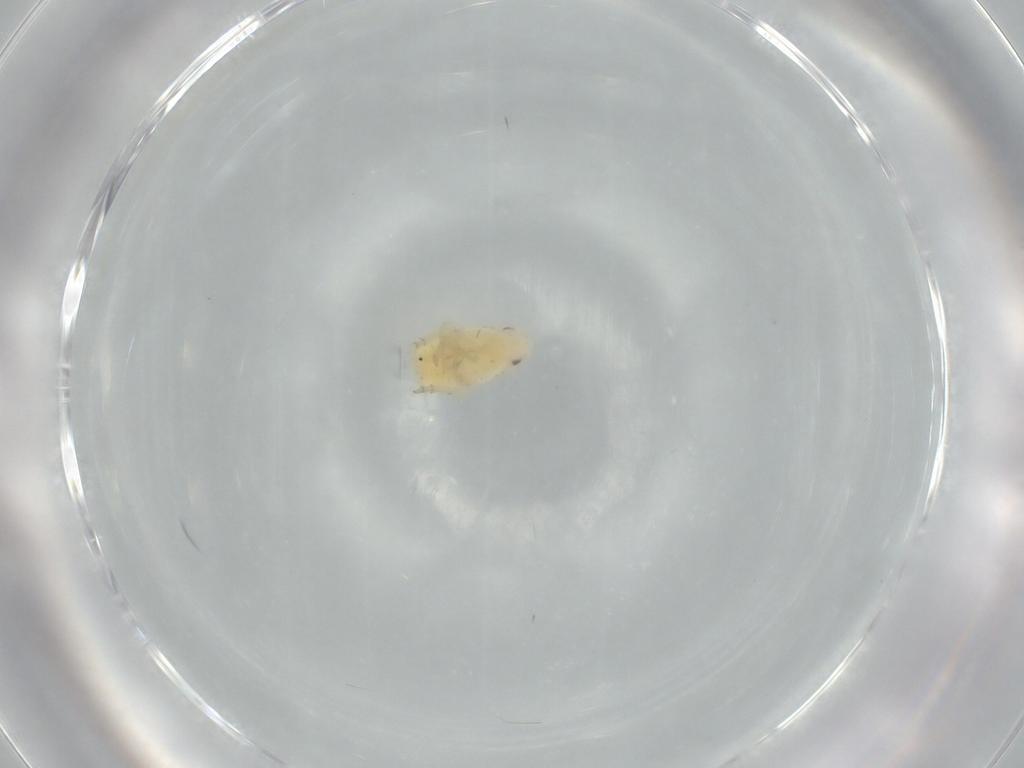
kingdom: Animalia
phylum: Arthropoda
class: Insecta
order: Hemiptera
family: Flatidae
